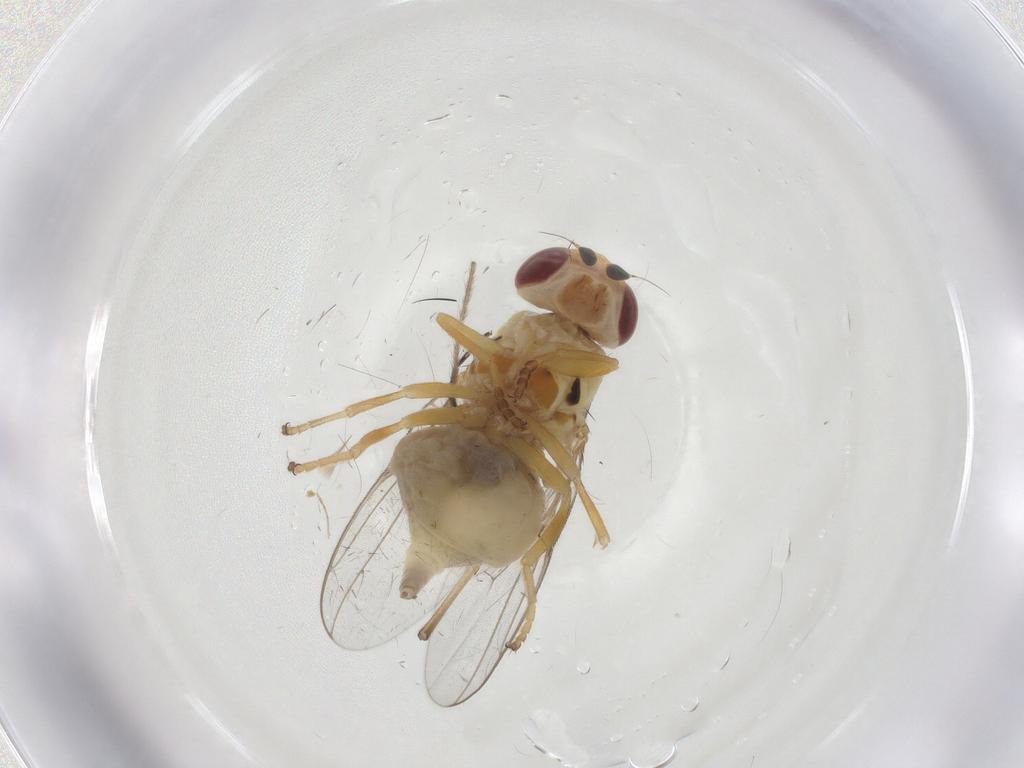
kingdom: Animalia
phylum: Arthropoda
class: Insecta
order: Diptera
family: Chloropidae
